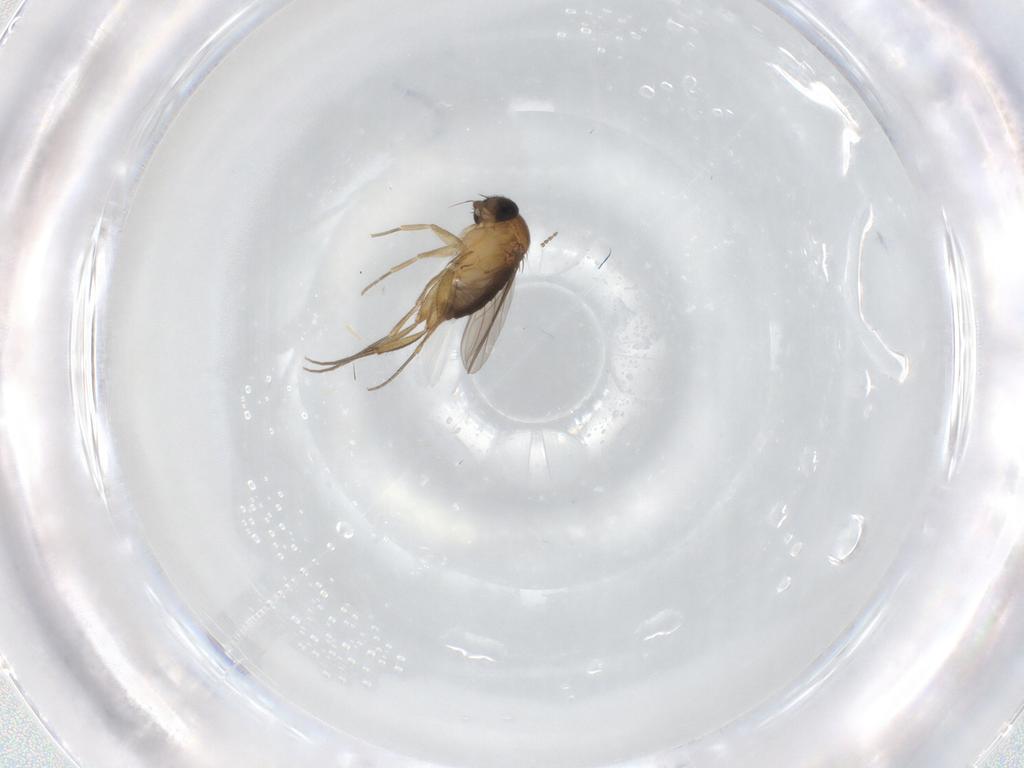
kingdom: Animalia
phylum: Arthropoda
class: Insecta
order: Diptera
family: Phoridae
